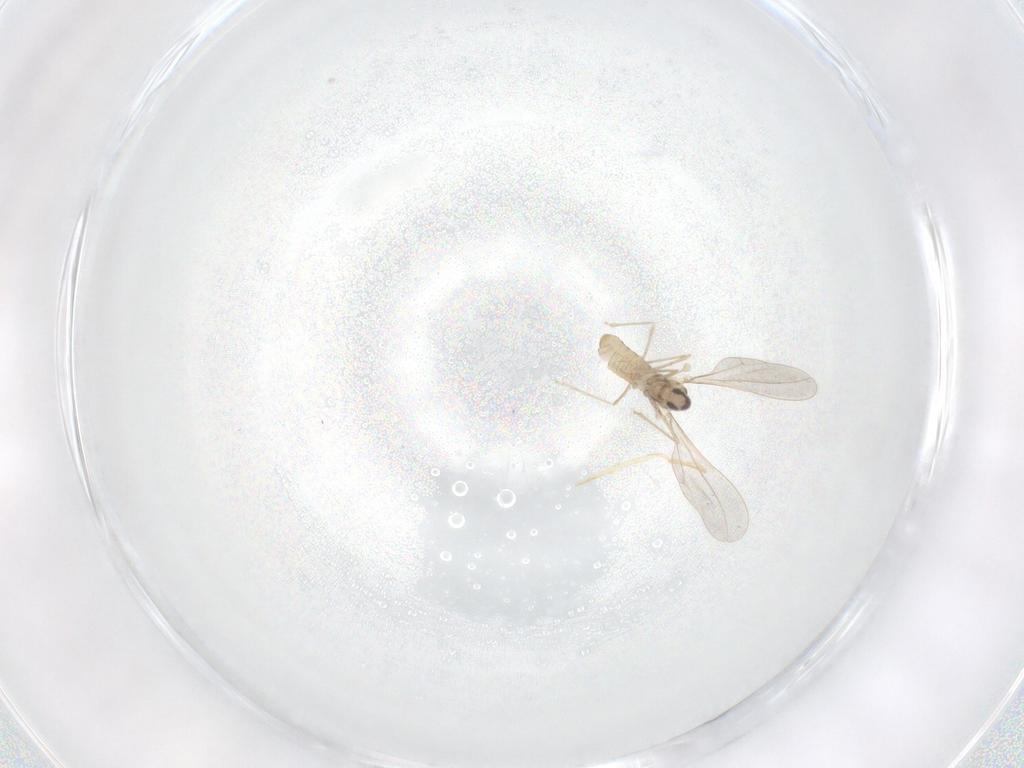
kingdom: Animalia
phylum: Arthropoda
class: Insecta
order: Diptera
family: Cecidomyiidae
